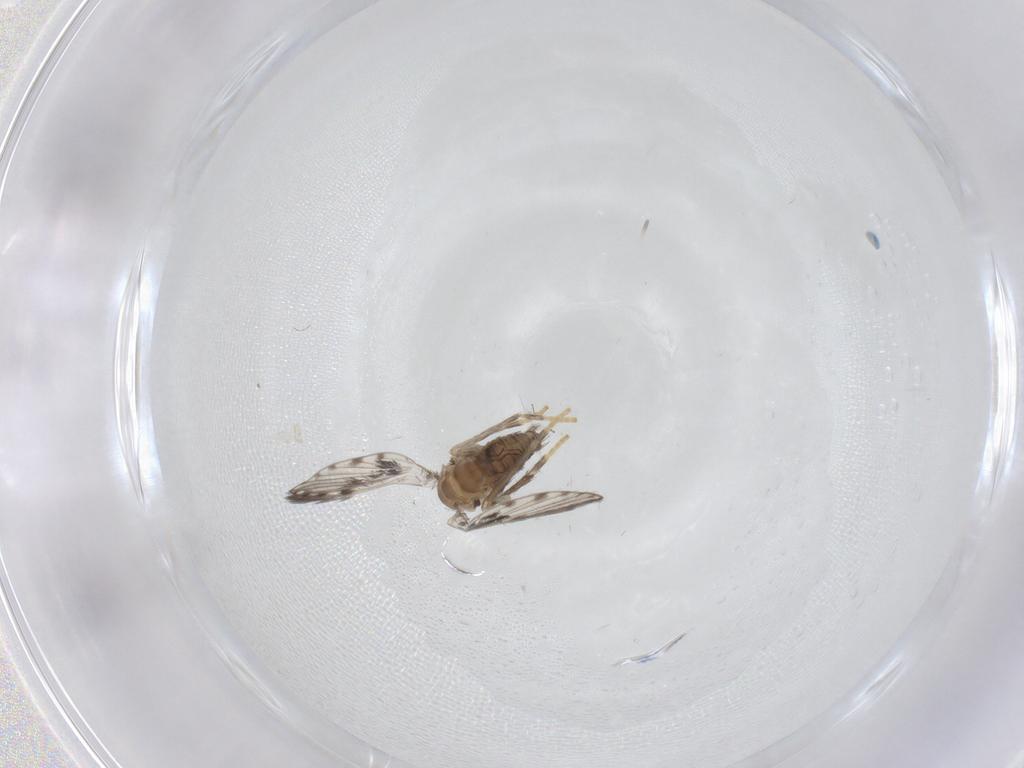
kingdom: Animalia
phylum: Arthropoda
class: Insecta
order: Diptera
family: Psychodidae
